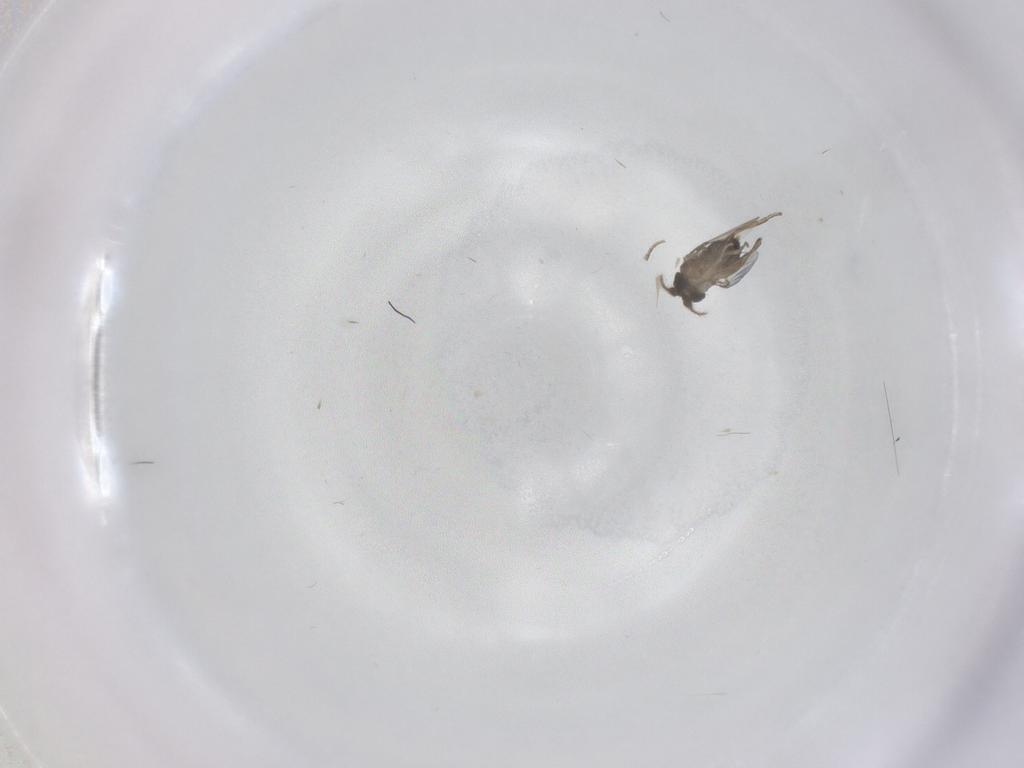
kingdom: Animalia
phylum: Arthropoda
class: Insecta
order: Diptera
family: Phoridae
